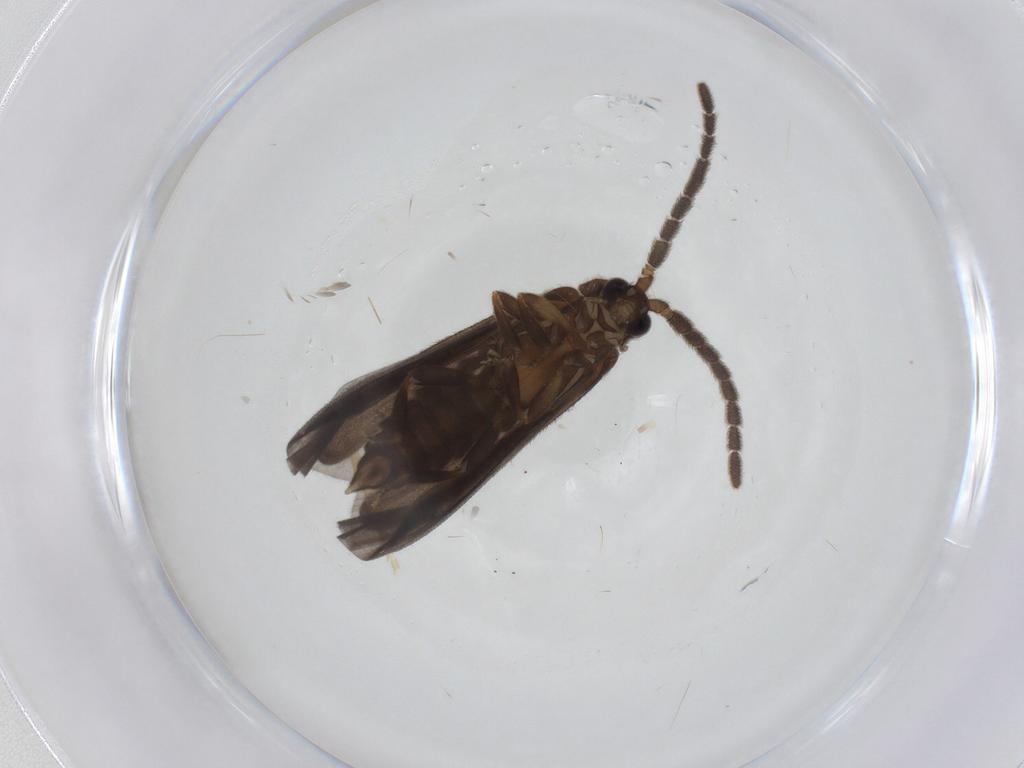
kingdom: Animalia
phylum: Arthropoda
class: Insecta
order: Coleoptera
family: Lycidae
